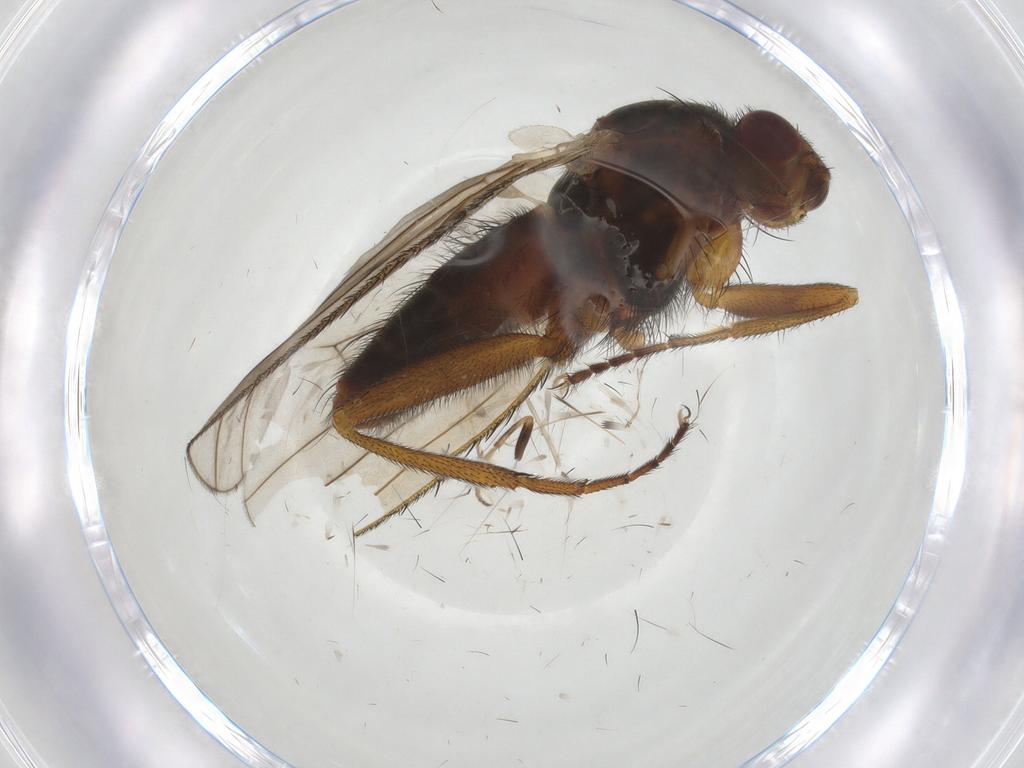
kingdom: Animalia
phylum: Arthropoda
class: Insecta
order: Diptera
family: Heleomyzidae
